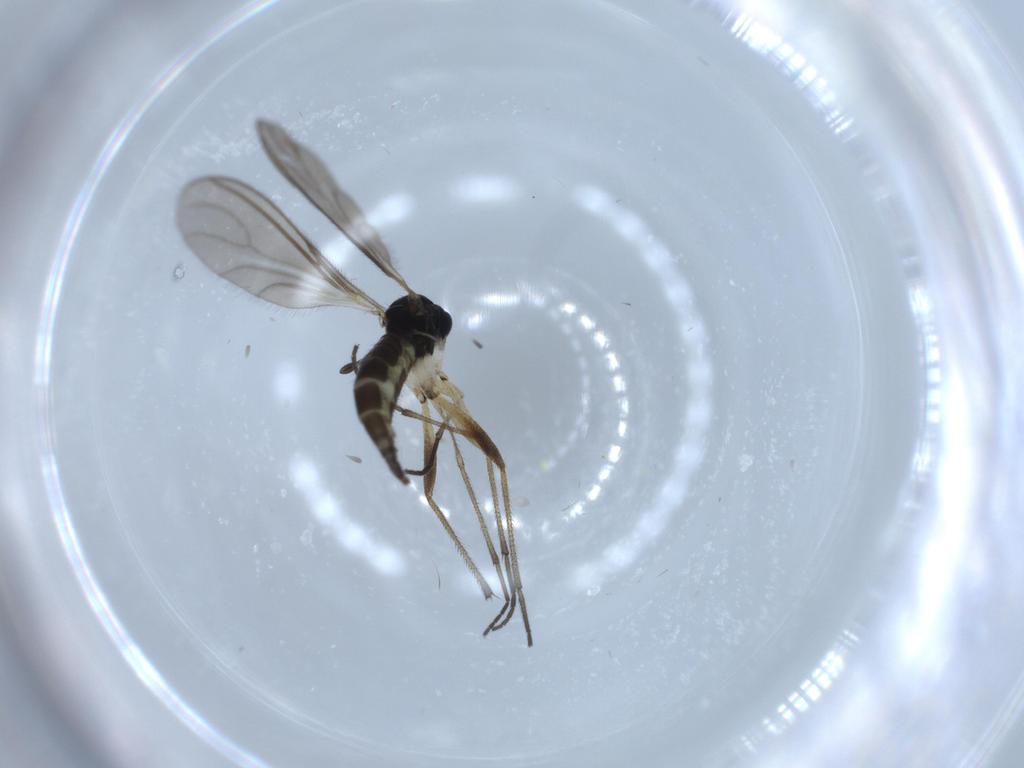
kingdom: Animalia
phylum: Arthropoda
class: Insecta
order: Diptera
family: Sciaridae
